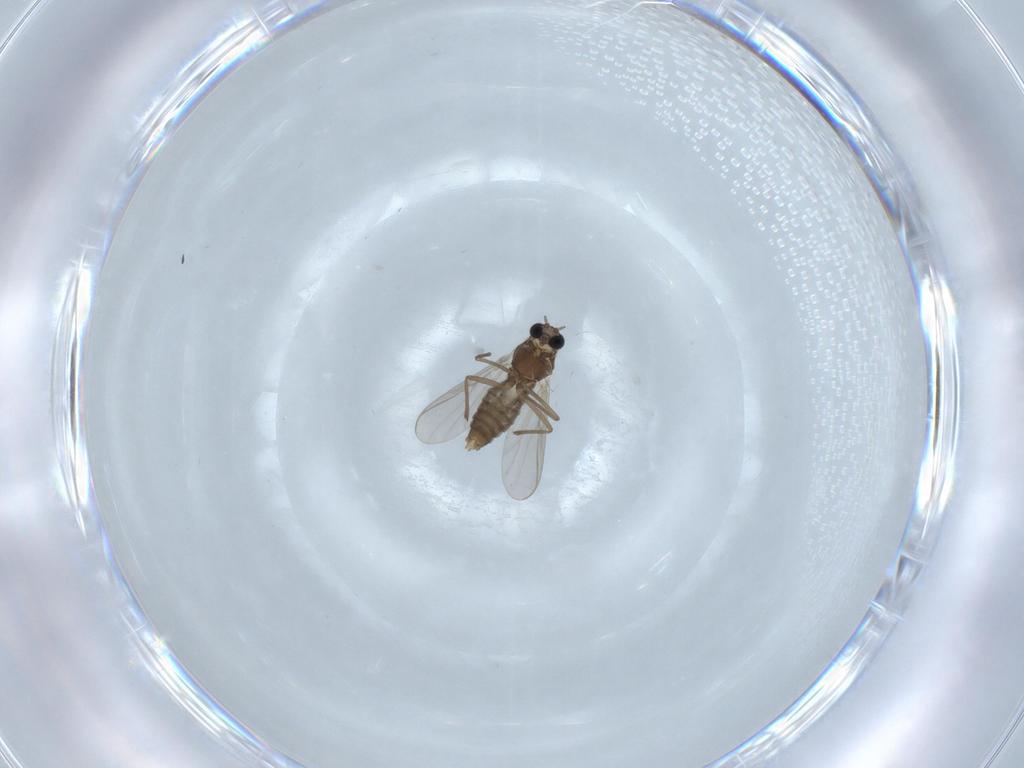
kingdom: Animalia
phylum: Arthropoda
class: Insecta
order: Diptera
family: Chironomidae
